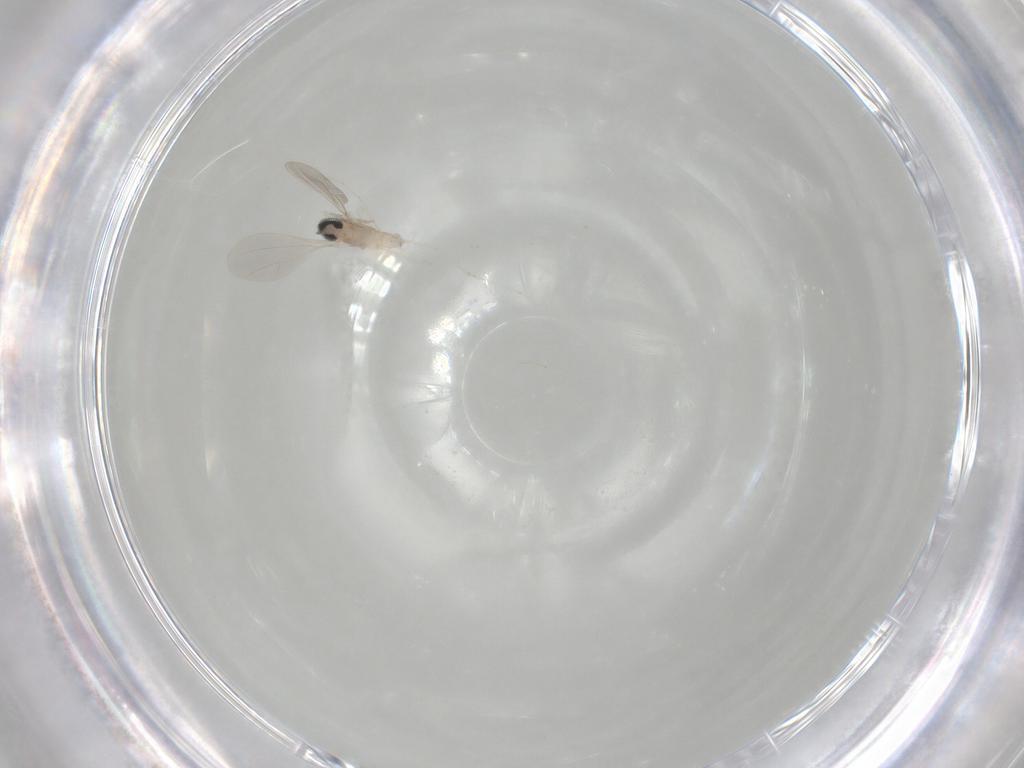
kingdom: Animalia
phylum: Arthropoda
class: Insecta
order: Diptera
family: Cecidomyiidae
